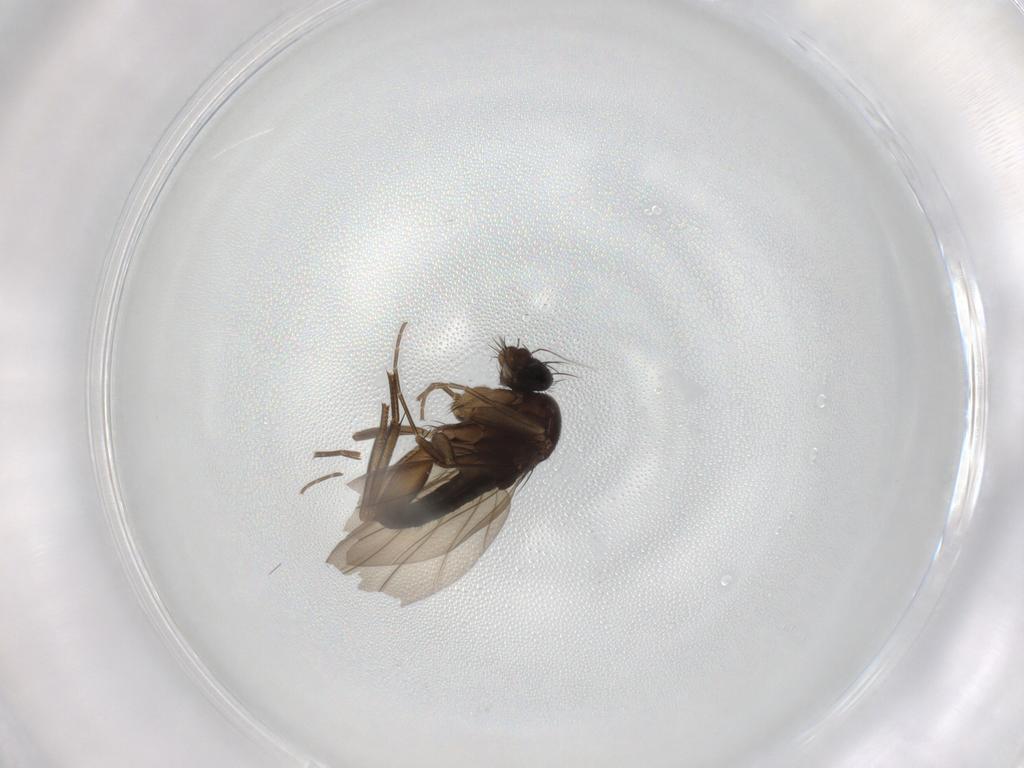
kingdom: Animalia
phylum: Arthropoda
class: Insecta
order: Diptera
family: Phoridae
